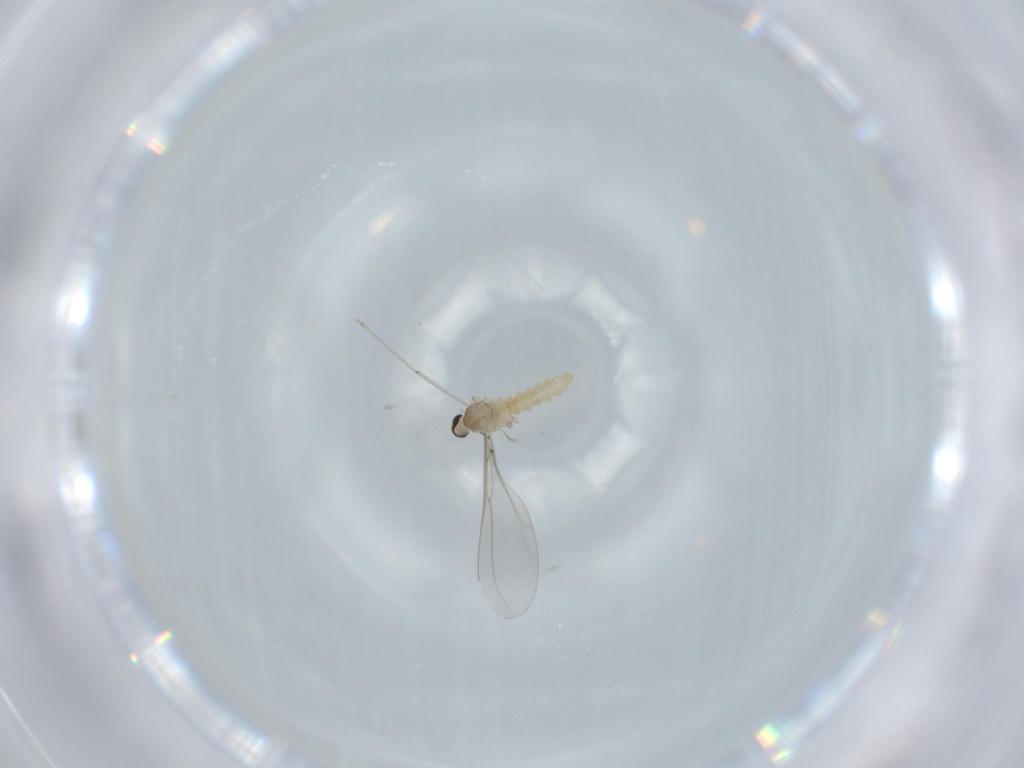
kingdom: Animalia
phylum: Arthropoda
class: Insecta
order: Diptera
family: Cecidomyiidae
